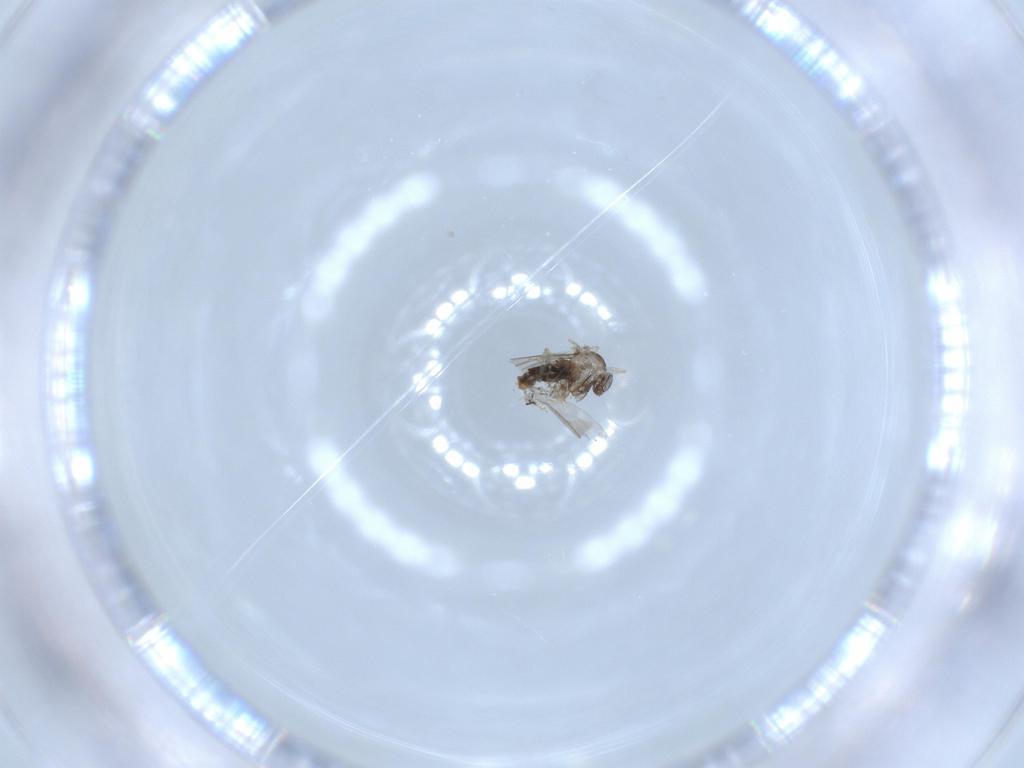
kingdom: Animalia
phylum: Arthropoda
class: Insecta
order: Diptera
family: Cecidomyiidae
